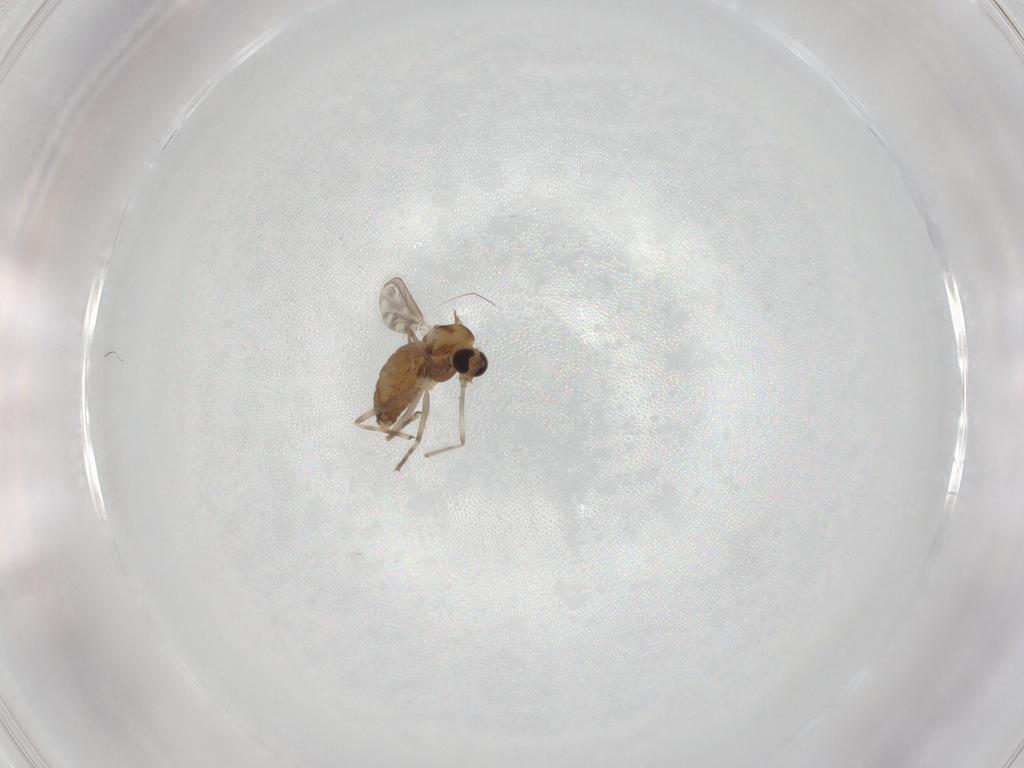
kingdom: Animalia
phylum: Arthropoda
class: Insecta
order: Diptera
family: Chironomidae
